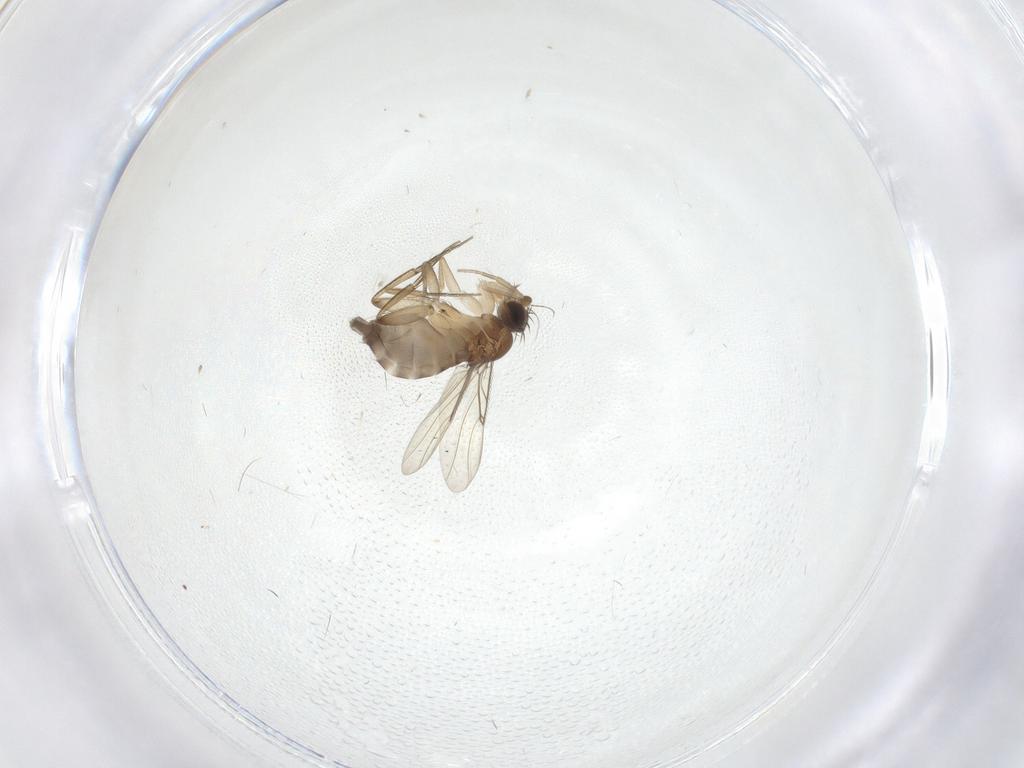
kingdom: Animalia
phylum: Arthropoda
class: Insecta
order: Diptera
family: Phoridae
